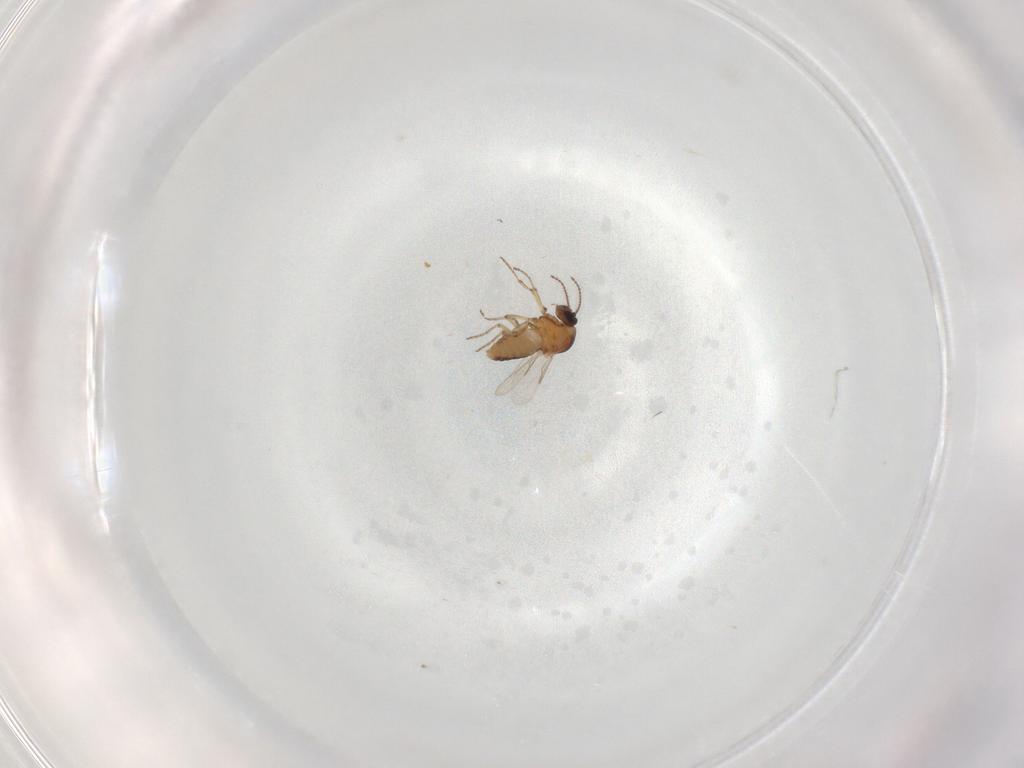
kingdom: Animalia
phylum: Arthropoda
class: Insecta
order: Diptera
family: Ceratopogonidae
